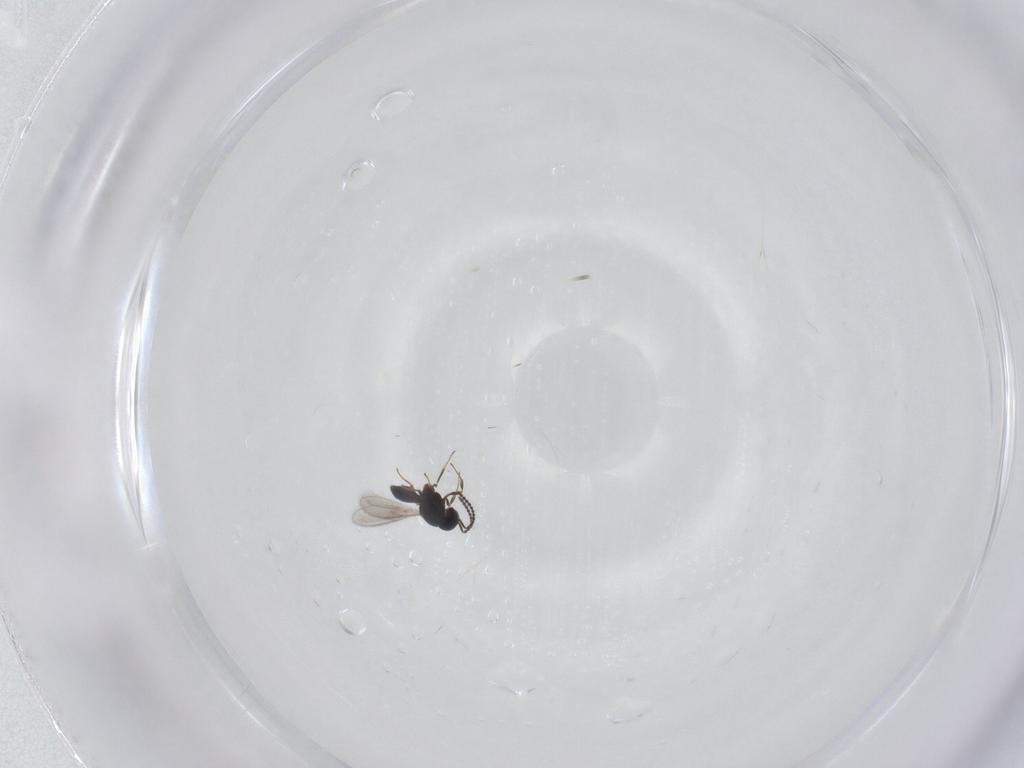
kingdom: Animalia
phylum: Arthropoda
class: Insecta
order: Hymenoptera
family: Scelionidae
